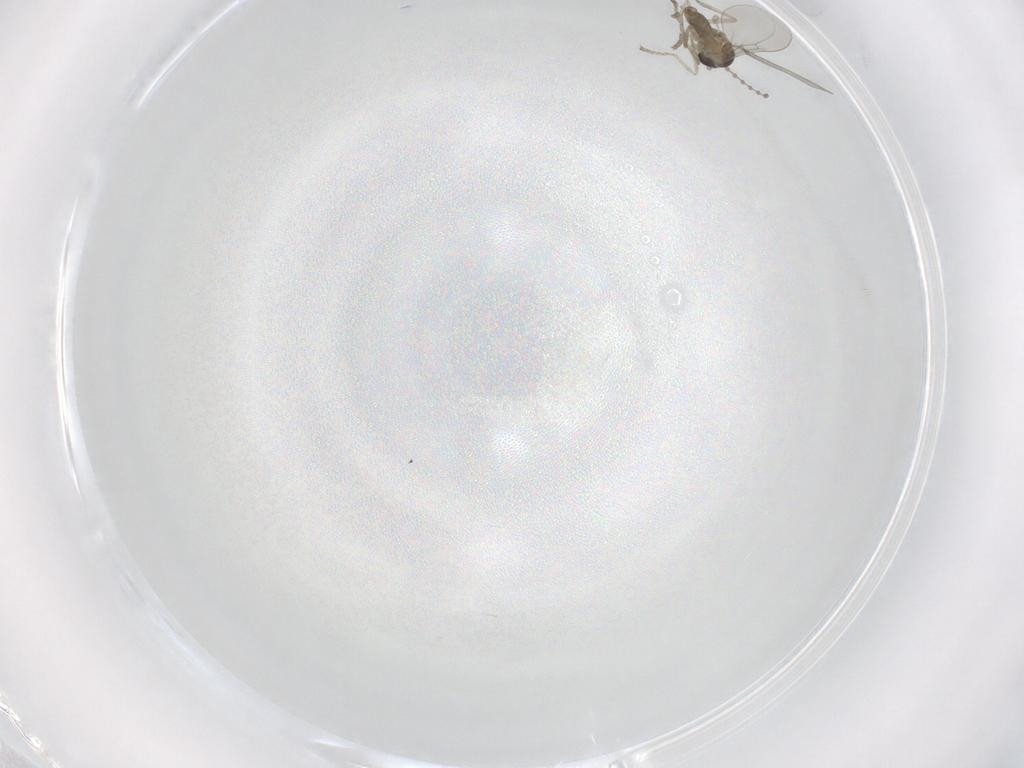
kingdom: Animalia
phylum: Arthropoda
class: Insecta
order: Diptera
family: Cecidomyiidae
